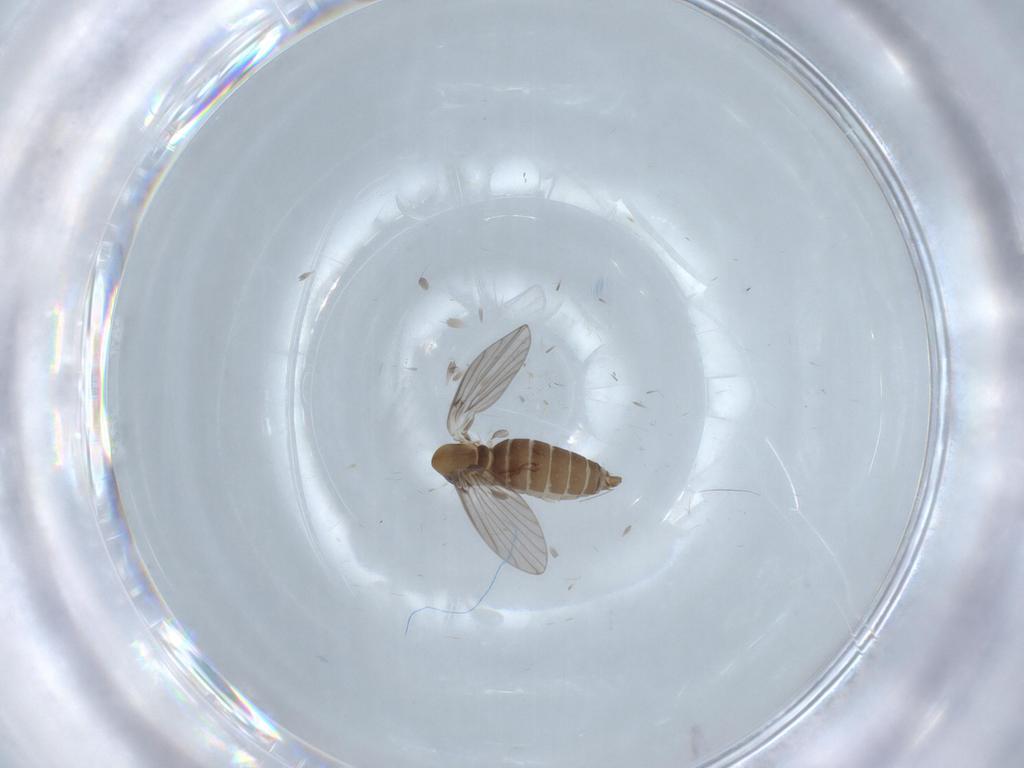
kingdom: Animalia
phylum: Arthropoda
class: Insecta
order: Diptera
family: Psychodidae
